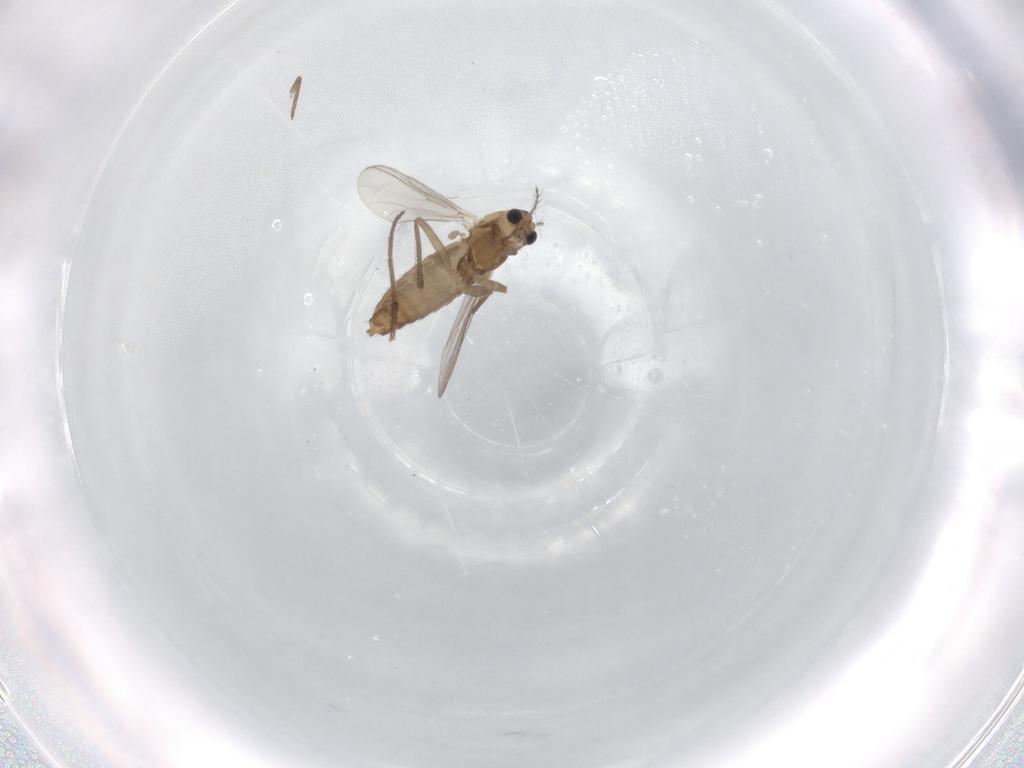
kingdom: Animalia
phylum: Arthropoda
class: Insecta
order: Diptera
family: Chironomidae
